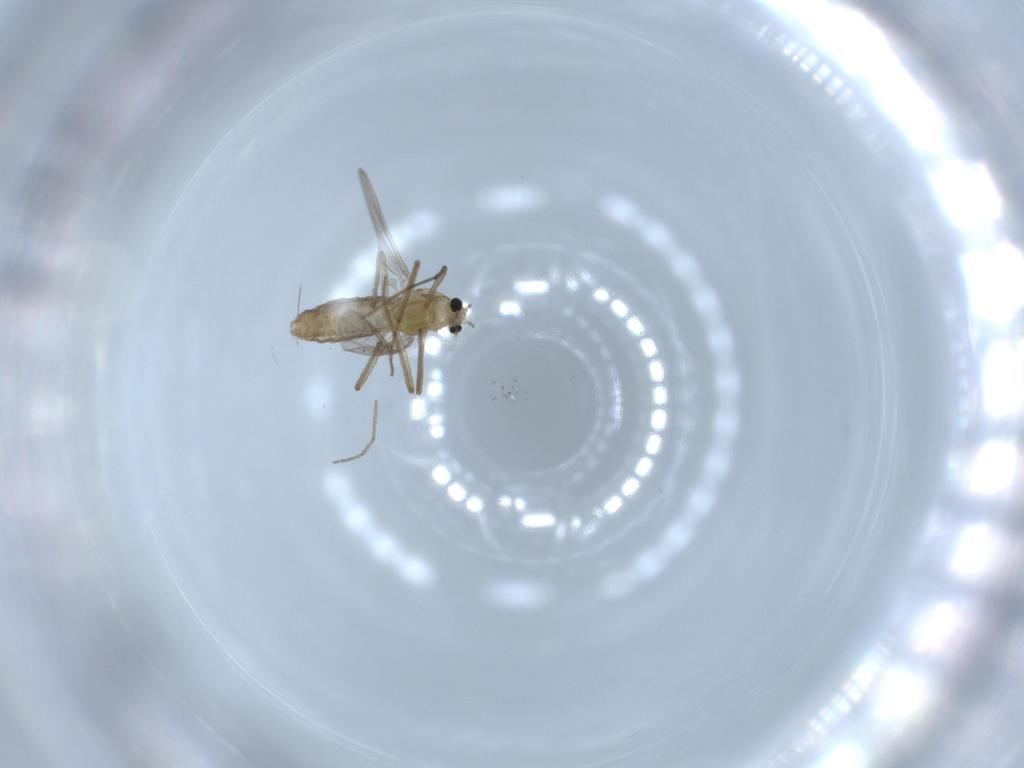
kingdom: Animalia
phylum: Arthropoda
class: Insecta
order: Diptera
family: Chironomidae
